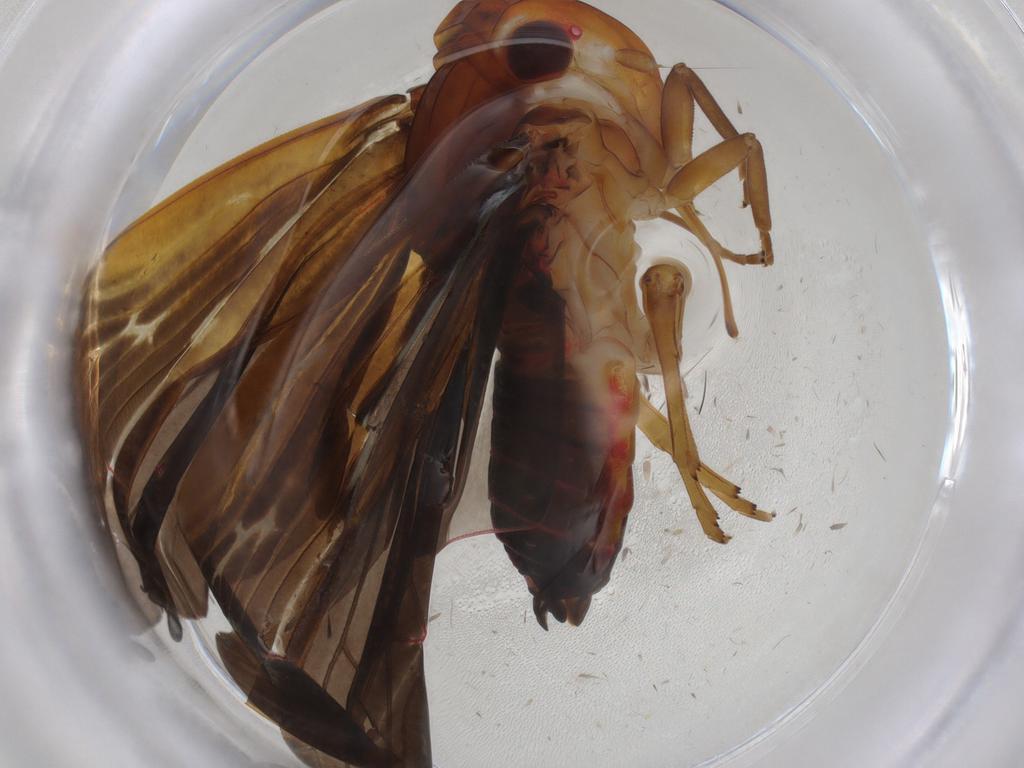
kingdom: Animalia
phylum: Arthropoda
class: Insecta
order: Hemiptera
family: Achilidae
